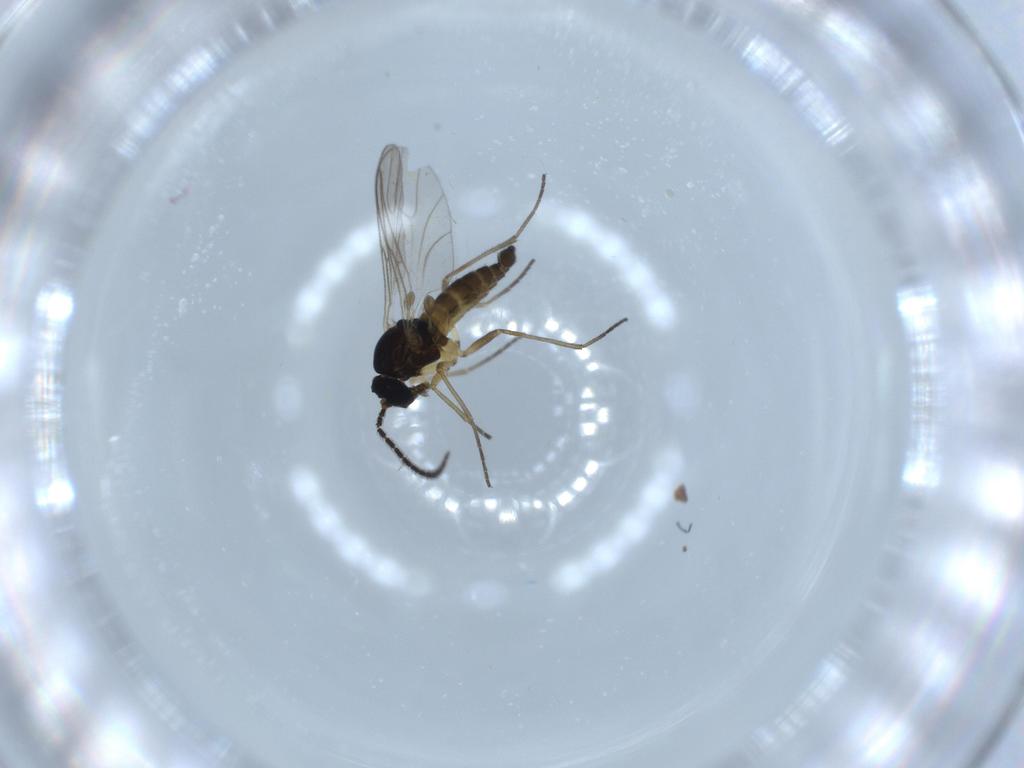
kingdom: Animalia
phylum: Arthropoda
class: Insecta
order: Diptera
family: Sciaridae
